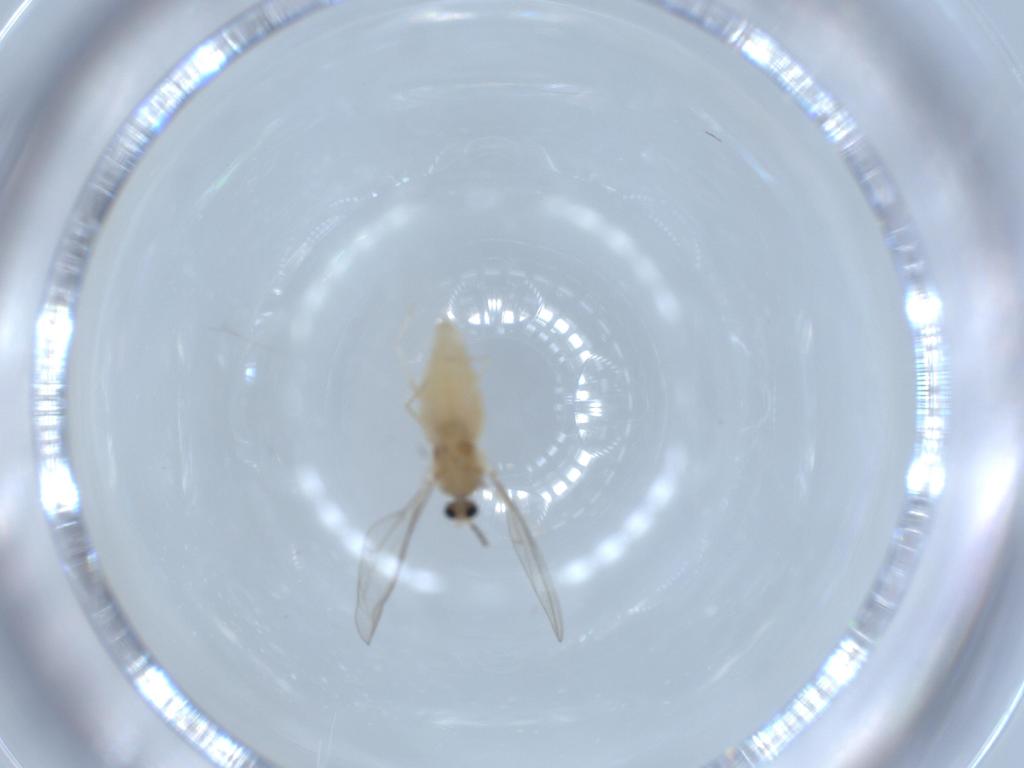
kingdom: Animalia
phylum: Arthropoda
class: Insecta
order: Diptera
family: Cecidomyiidae
